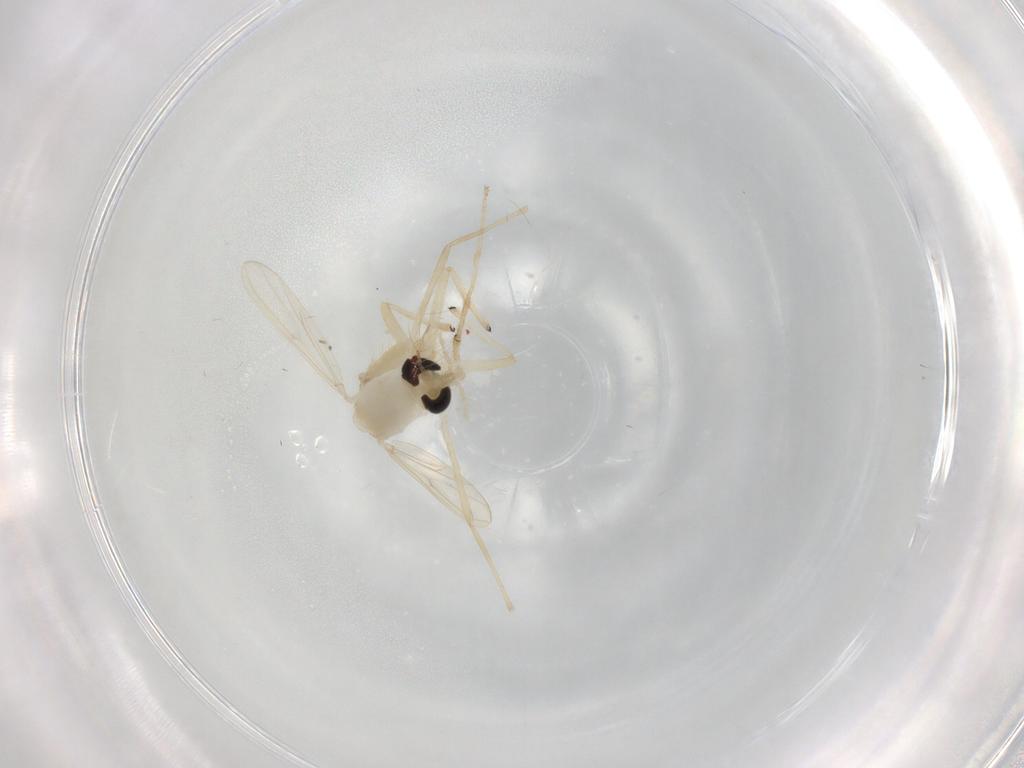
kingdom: Animalia
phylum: Arthropoda
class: Insecta
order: Diptera
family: Chironomidae
